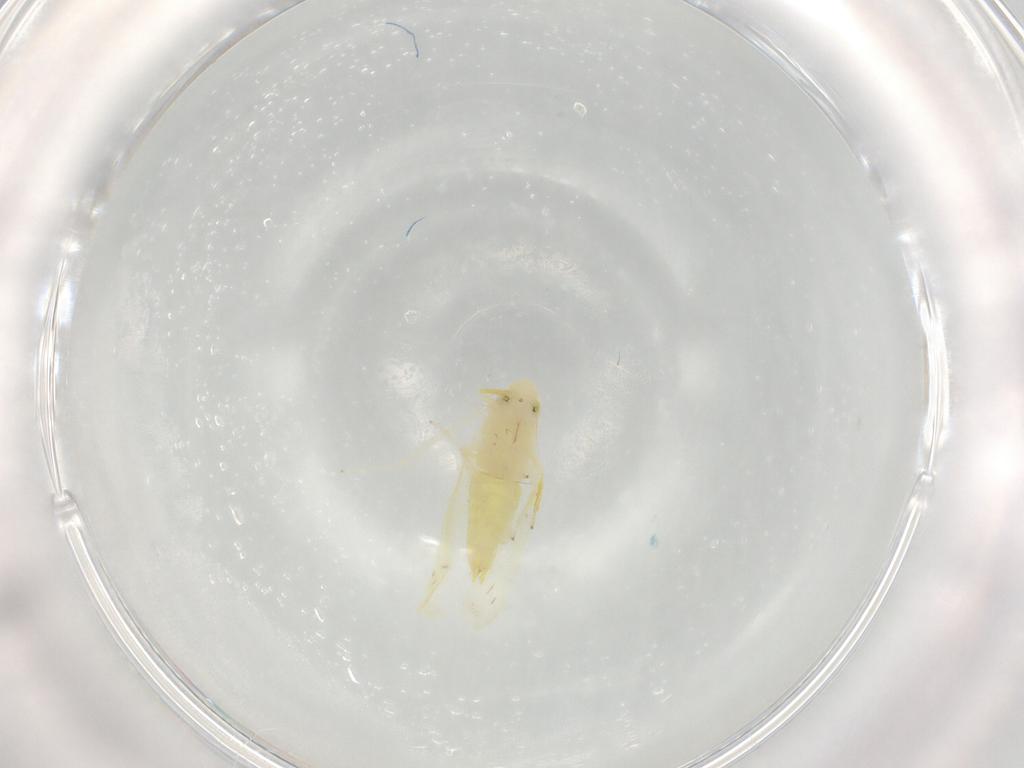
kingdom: Animalia
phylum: Arthropoda
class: Insecta
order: Hemiptera
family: Cicadellidae
